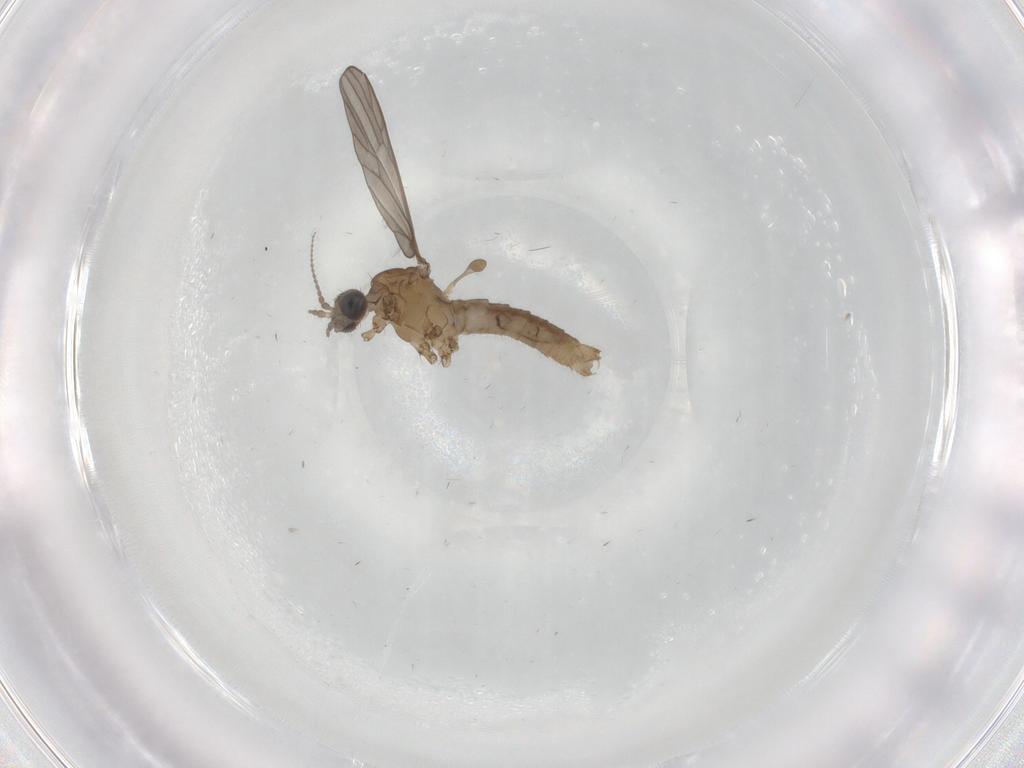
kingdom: Animalia
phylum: Arthropoda
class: Insecta
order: Diptera
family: Limoniidae
